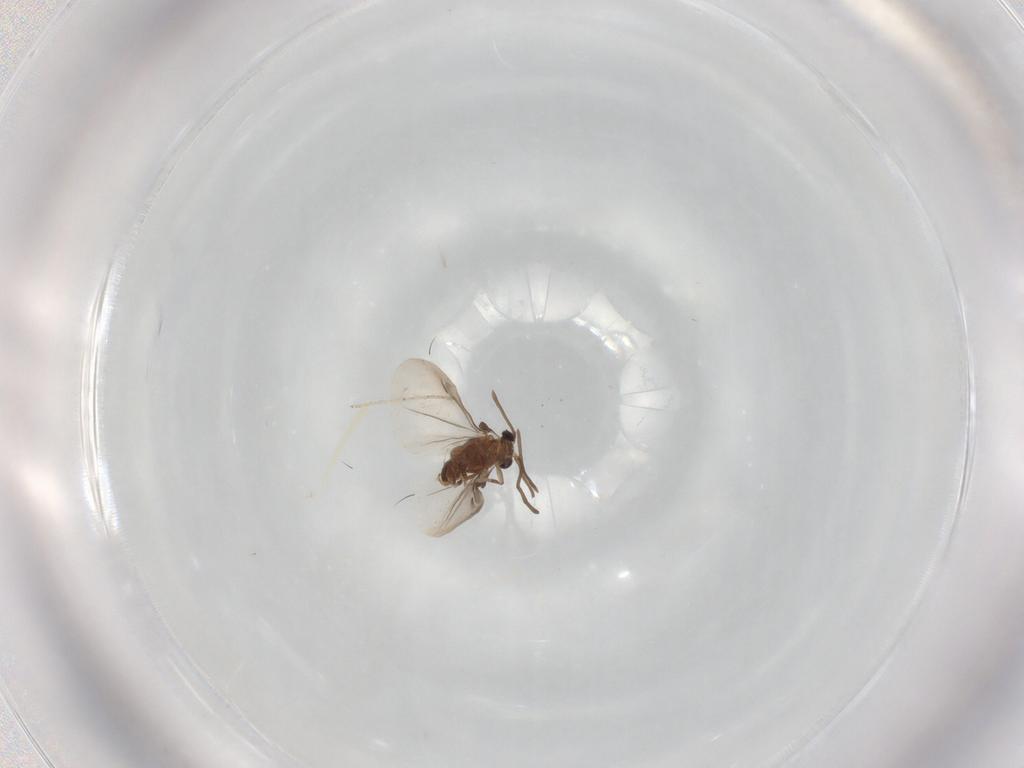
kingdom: Animalia
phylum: Arthropoda
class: Insecta
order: Strepsiptera
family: Myrmecolacidae
